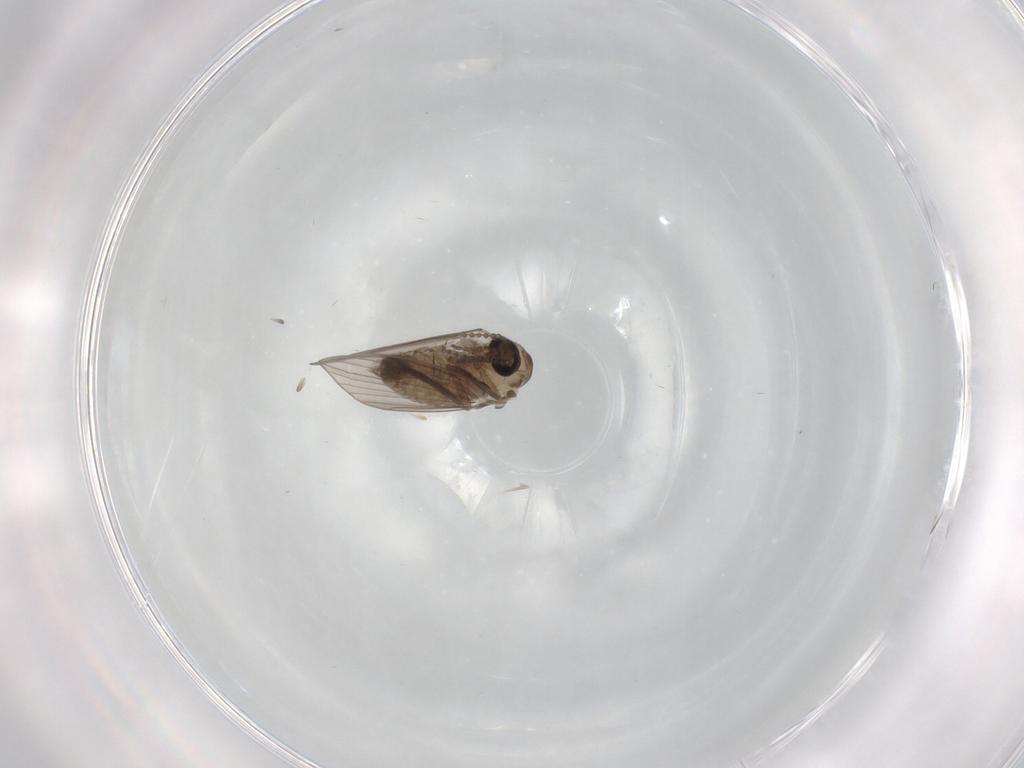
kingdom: Animalia
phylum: Arthropoda
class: Insecta
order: Diptera
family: Psychodidae
